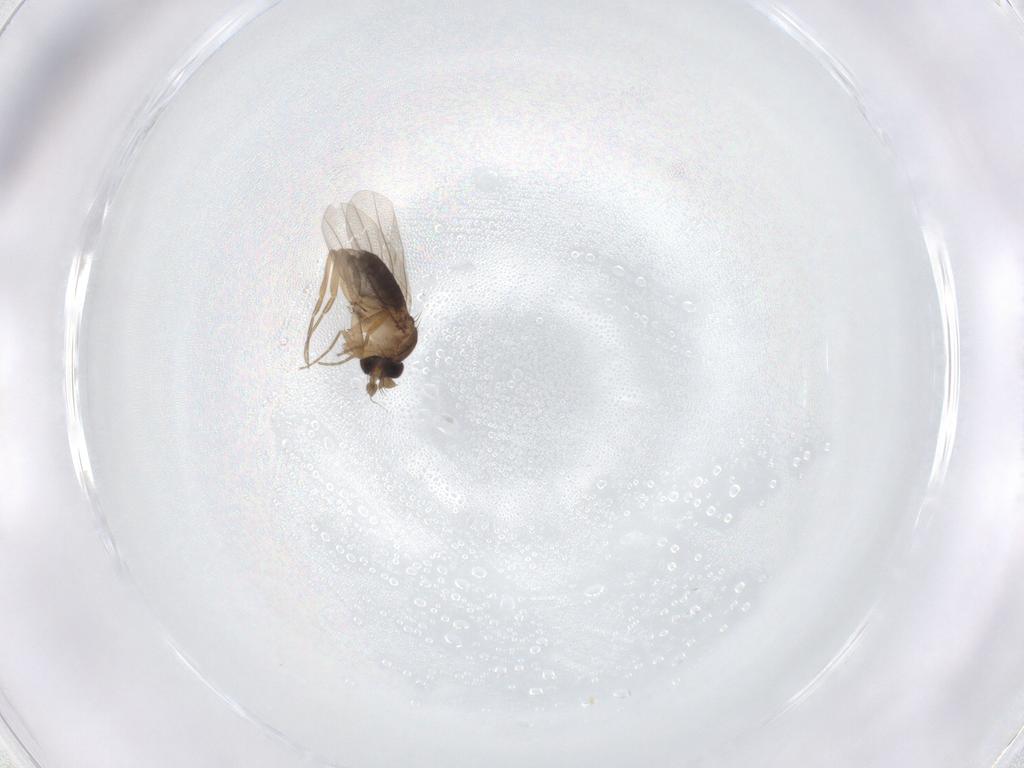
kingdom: Animalia
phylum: Arthropoda
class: Insecta
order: Diptera
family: Chironomidae
